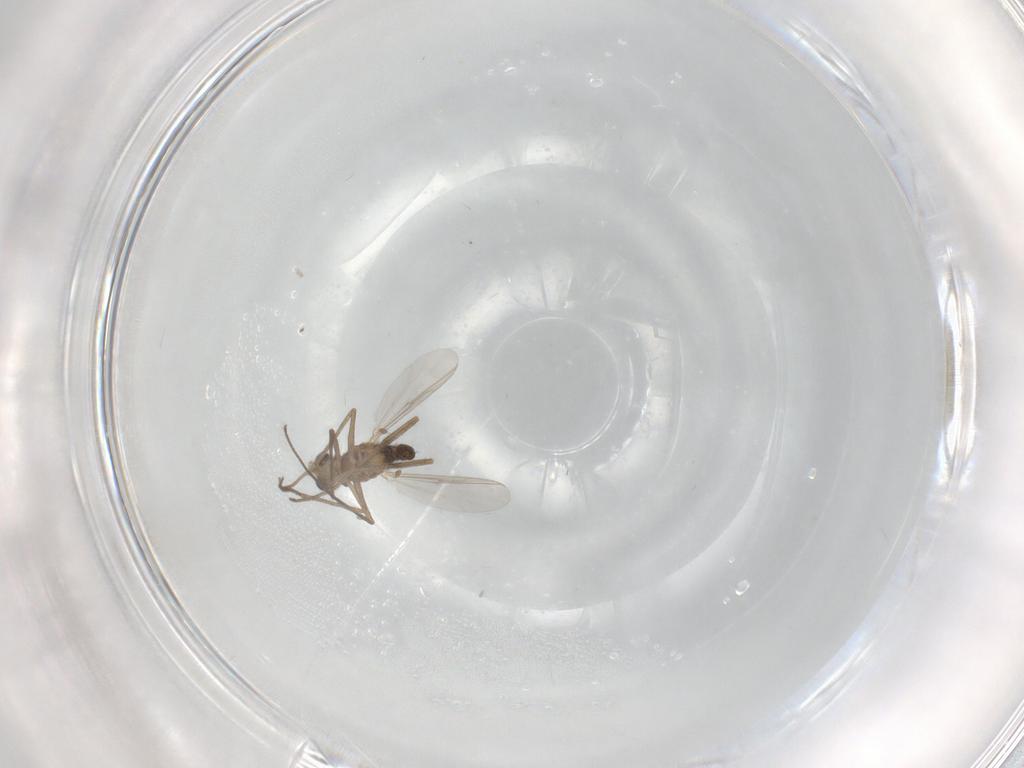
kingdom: Animalia
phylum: Arthropoda
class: Insecta
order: Diptera
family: Chironomidae
